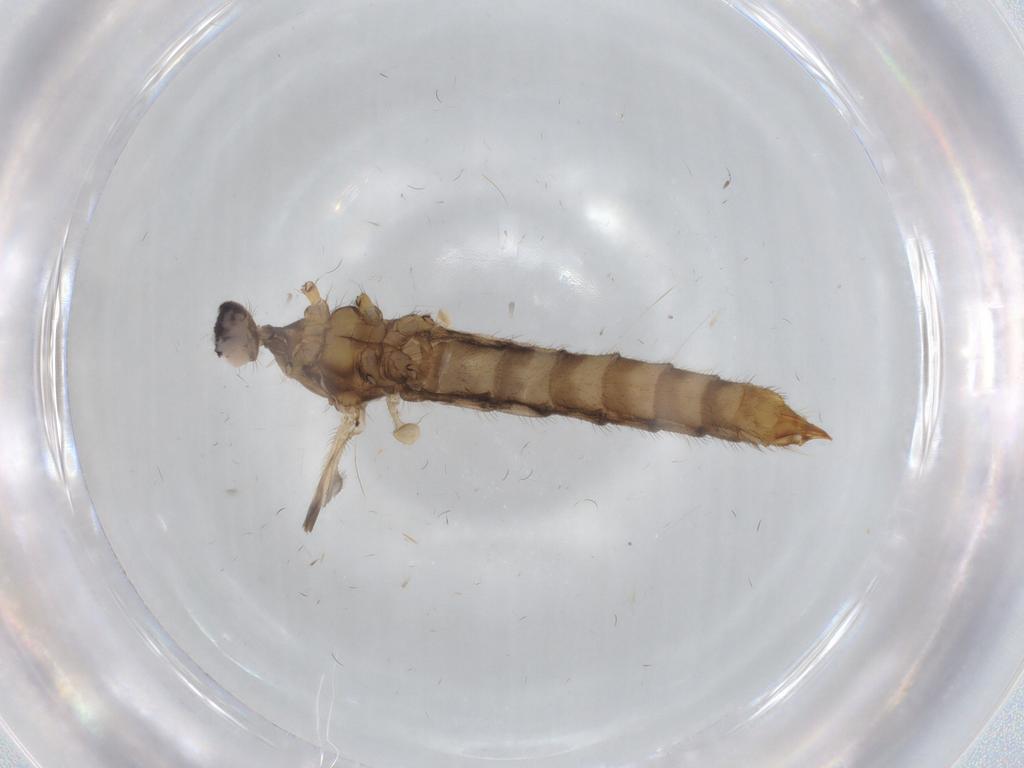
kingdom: Animalia
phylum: Arthropoda
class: Insecta
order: Diptera
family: Limoniidae
